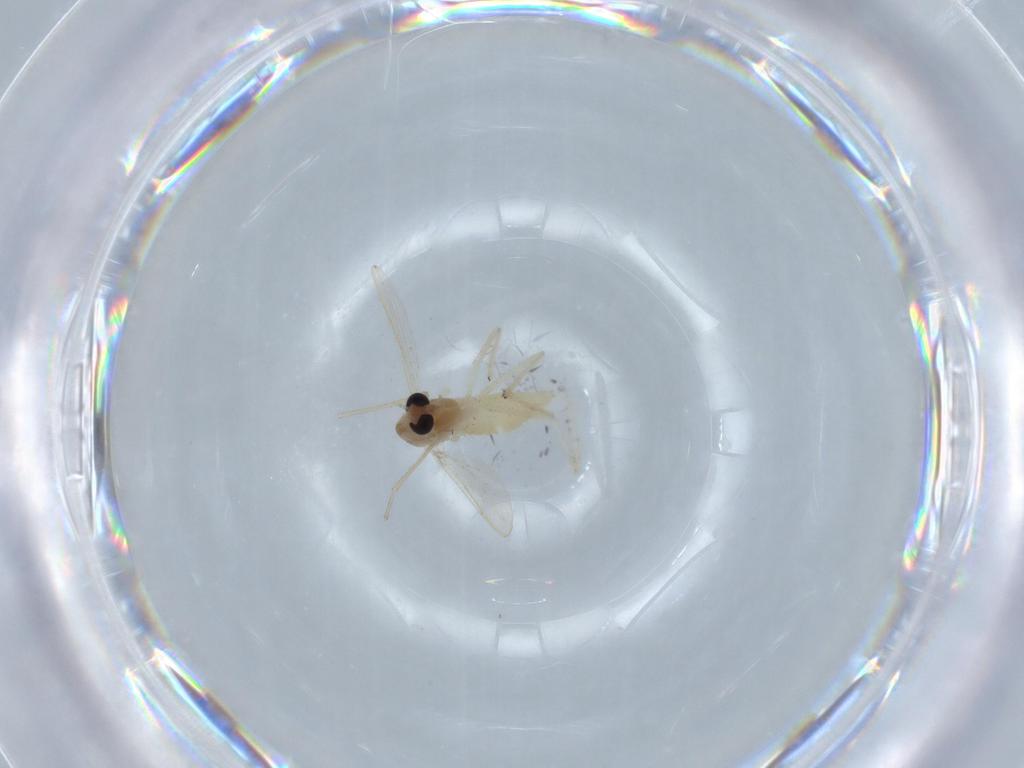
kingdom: Animalia
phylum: Arthropoda
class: Insecta
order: Diptera
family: Chironomidae
